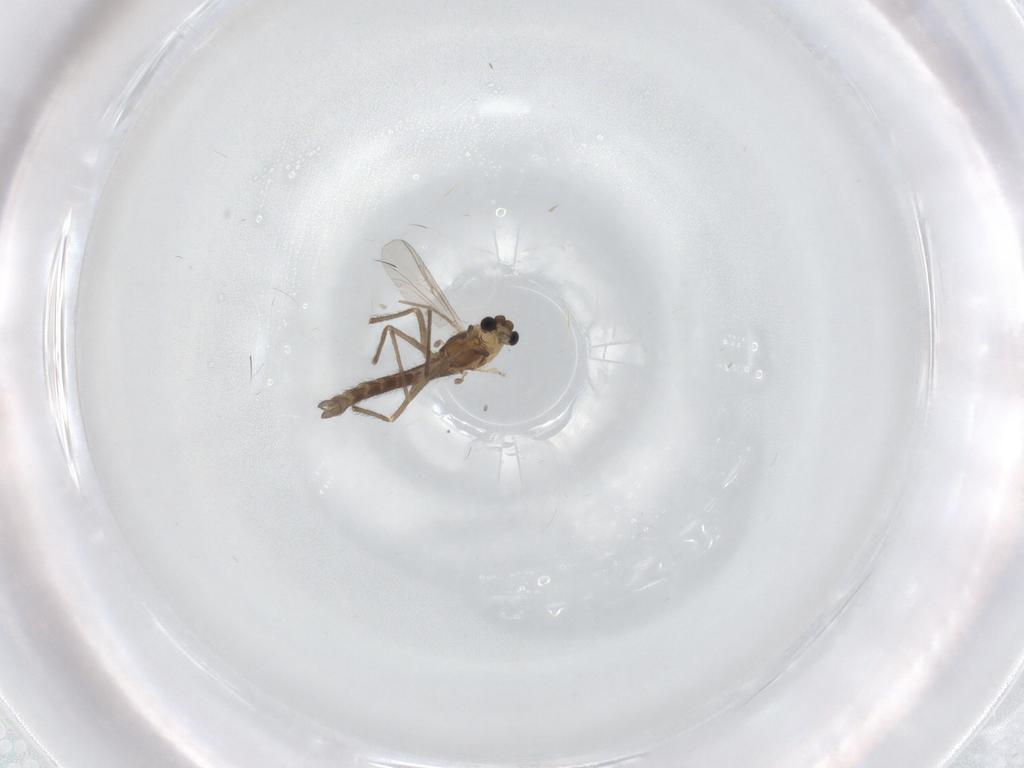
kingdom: Animalia
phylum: Arthropoda
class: Insecta
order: Diptera
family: Chironomidae
